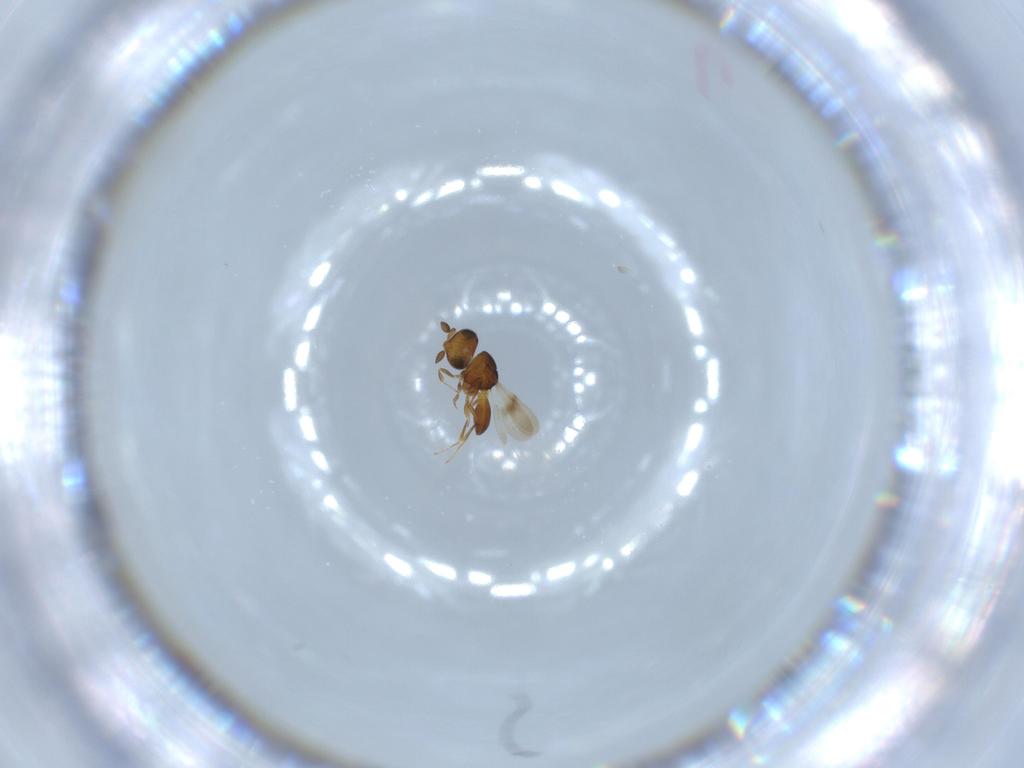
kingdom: Animalia
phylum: Arthropoda
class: Insecta
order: Hymenoptera
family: Scelionidae
